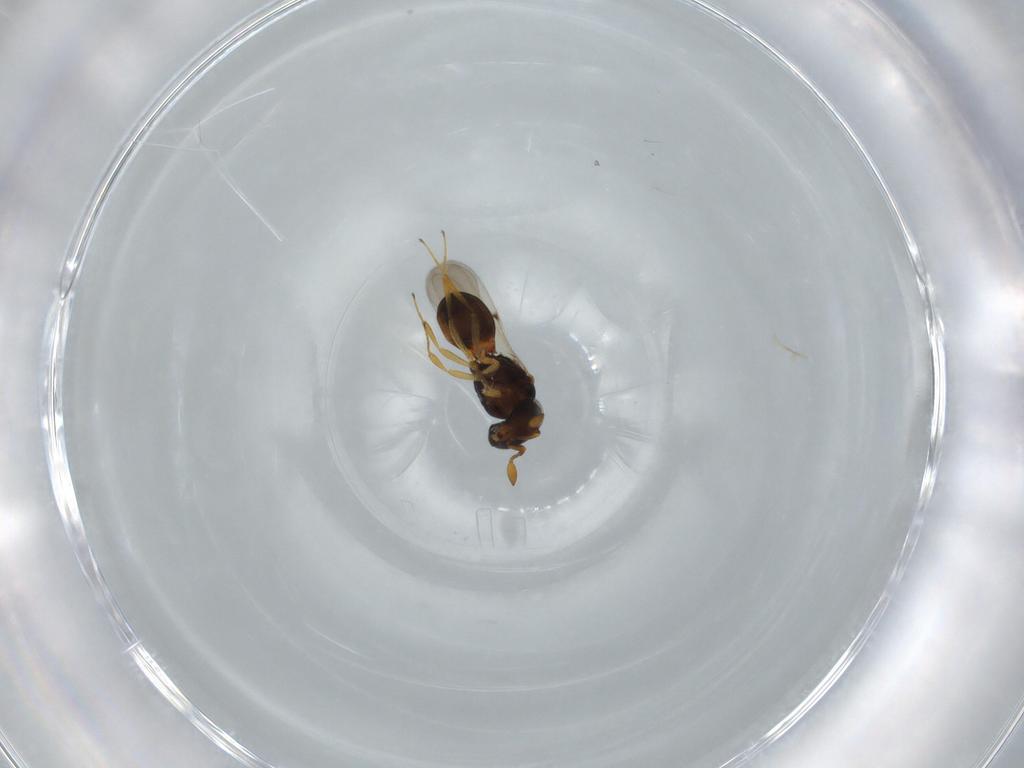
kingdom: Animalia
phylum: Arthropoda
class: Insecta
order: Hymenoptera
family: Scelionidae
